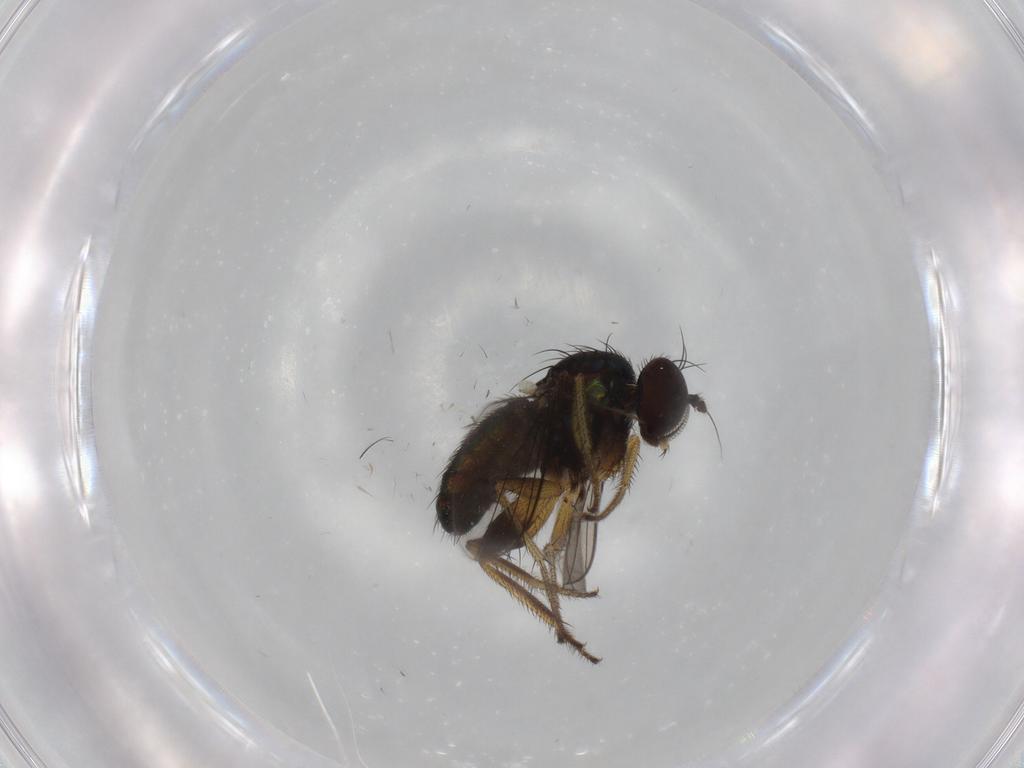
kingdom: Animalia
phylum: Arthropoda
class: Insecta
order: Diptera
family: Dolichopodidae
